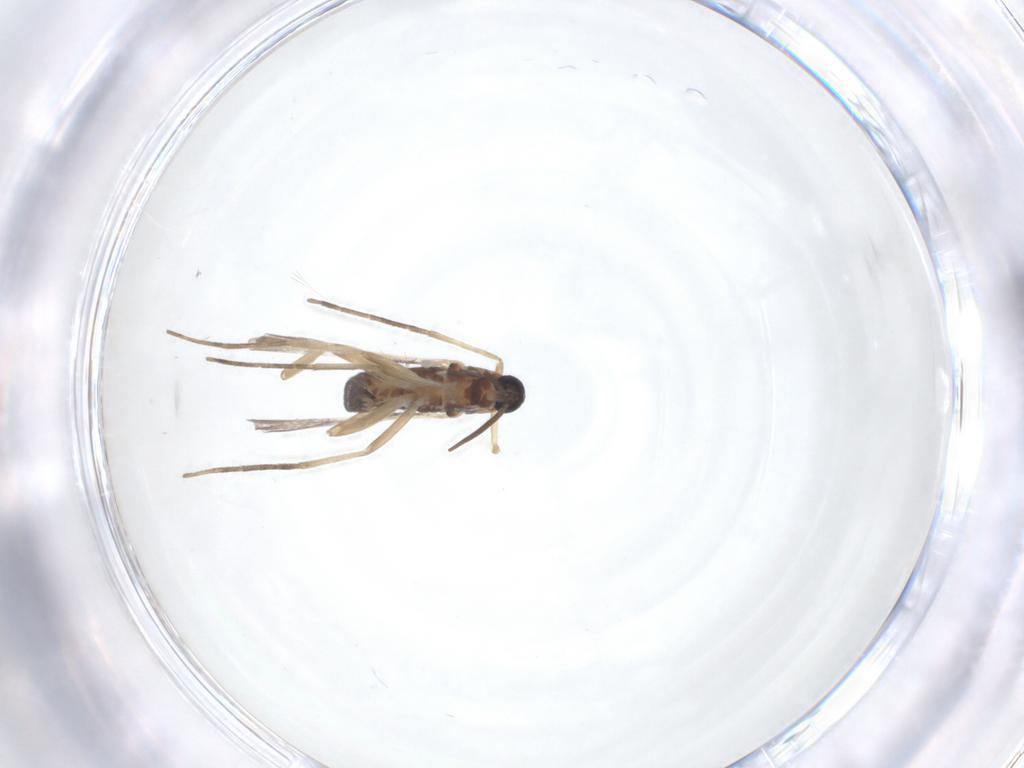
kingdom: Animalia
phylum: Arthropoda
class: Insecta
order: Diptera
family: Cecidomyiidae
